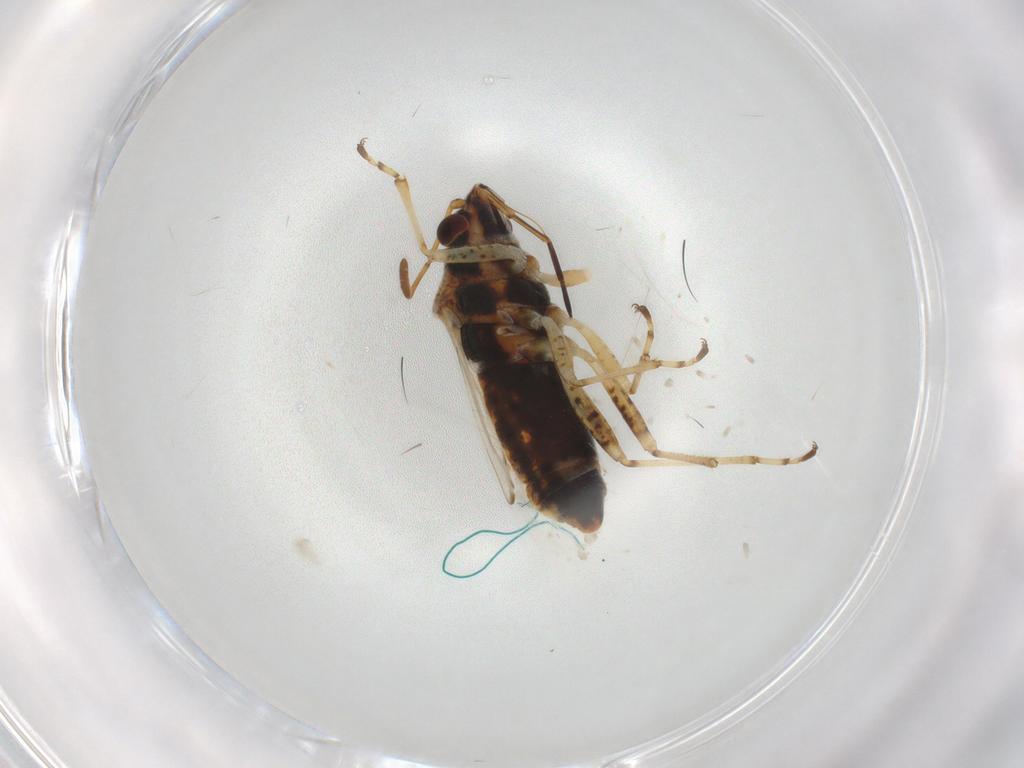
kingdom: Animalia
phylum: Arthropoda
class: Insecta
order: Hemiptera
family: Lygaeidae
